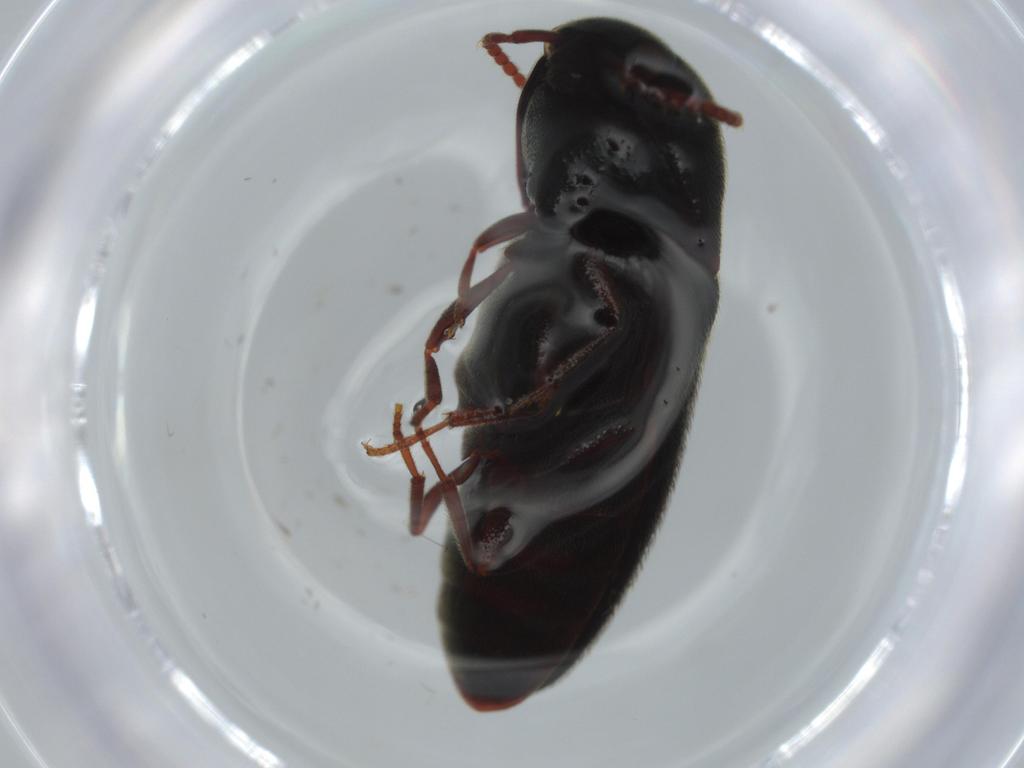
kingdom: Animalia
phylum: Arthropoda
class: Insecta
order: Coleoptera
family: Eucnemidae
